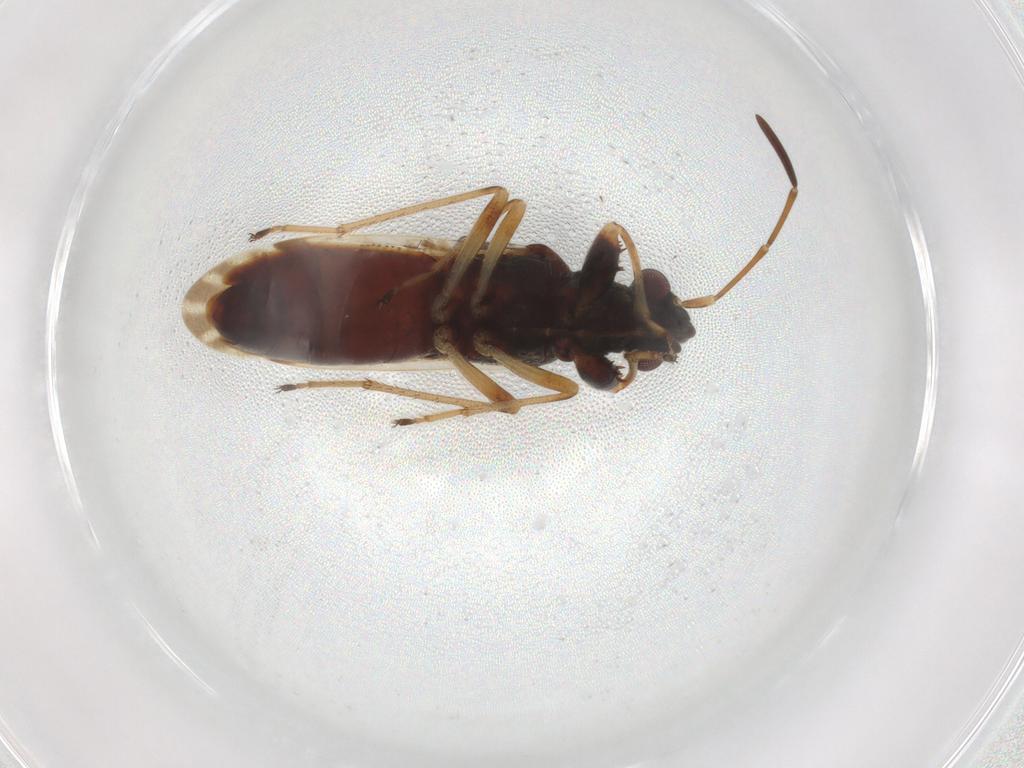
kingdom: Animalia
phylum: Arthropoda
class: Insecta
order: Hemiptera
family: Rhyparochromidae
